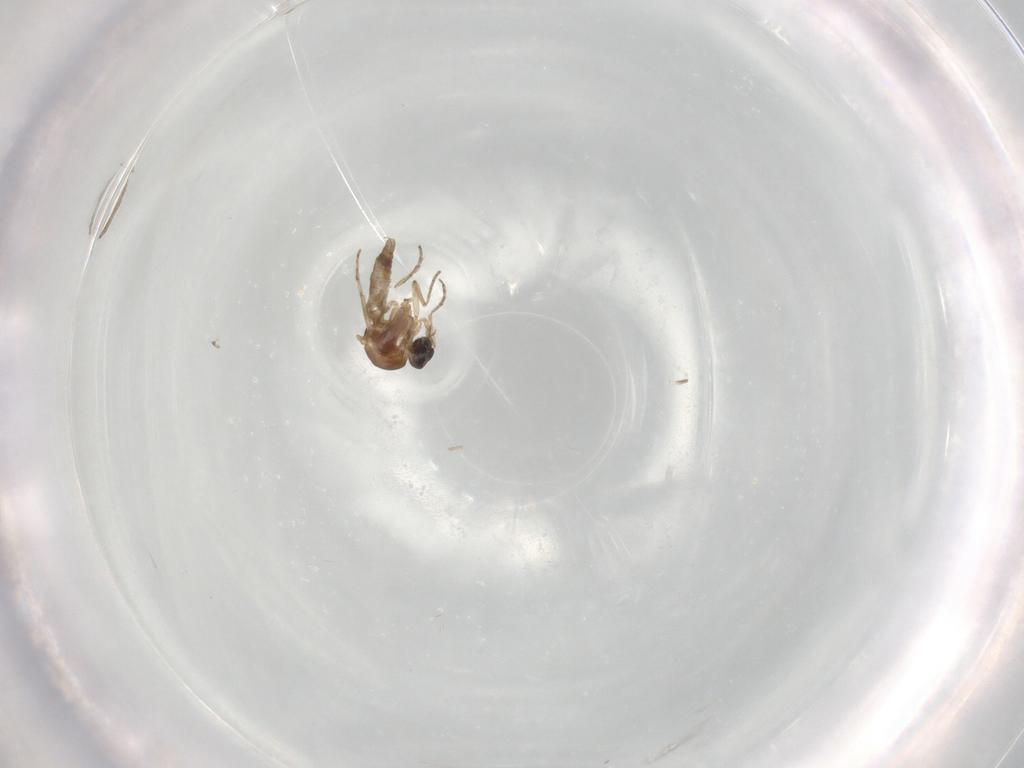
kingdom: Animalia
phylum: Arthropoda
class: Insecta
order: Diptera
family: Chironomidae
